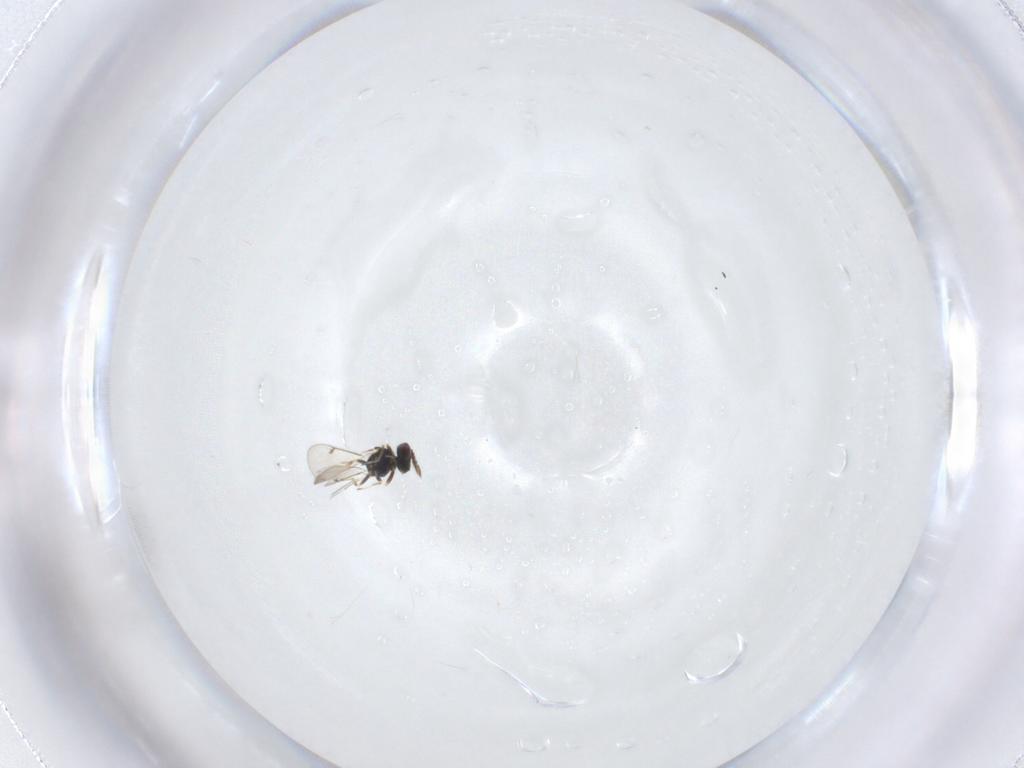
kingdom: Animalia
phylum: Arthropoda
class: Insecta
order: Hymenoptera
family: Eulophidae
